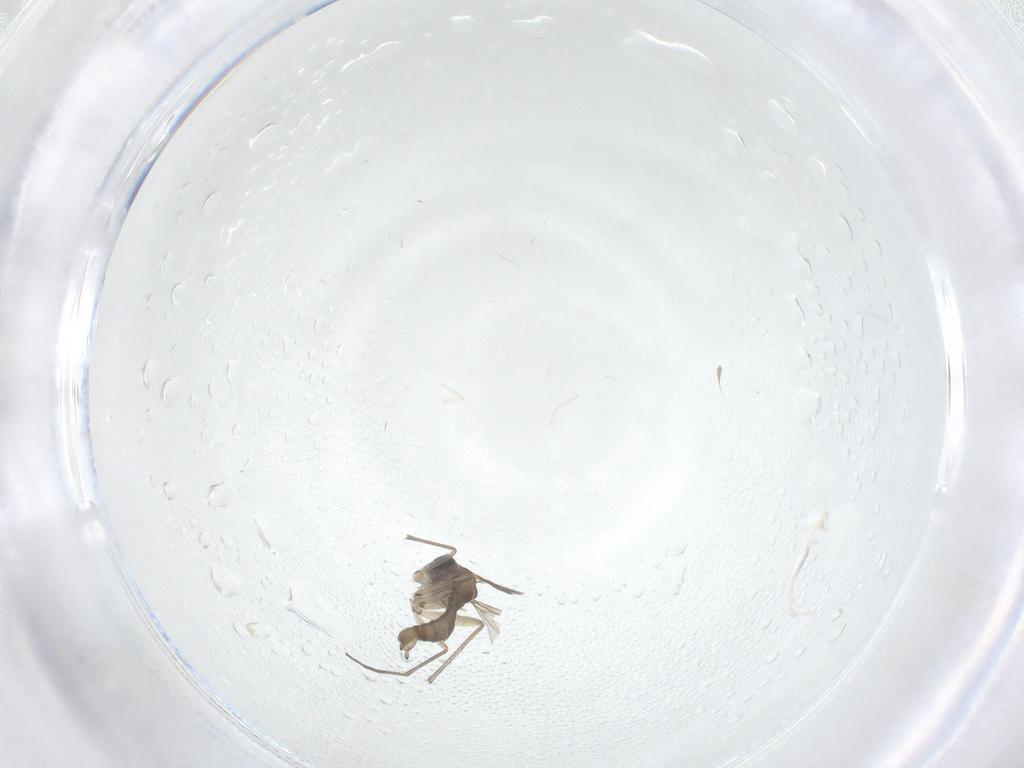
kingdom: Animalia
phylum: Arthropoda
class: Insecta
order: Diptera
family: Sciaridae
